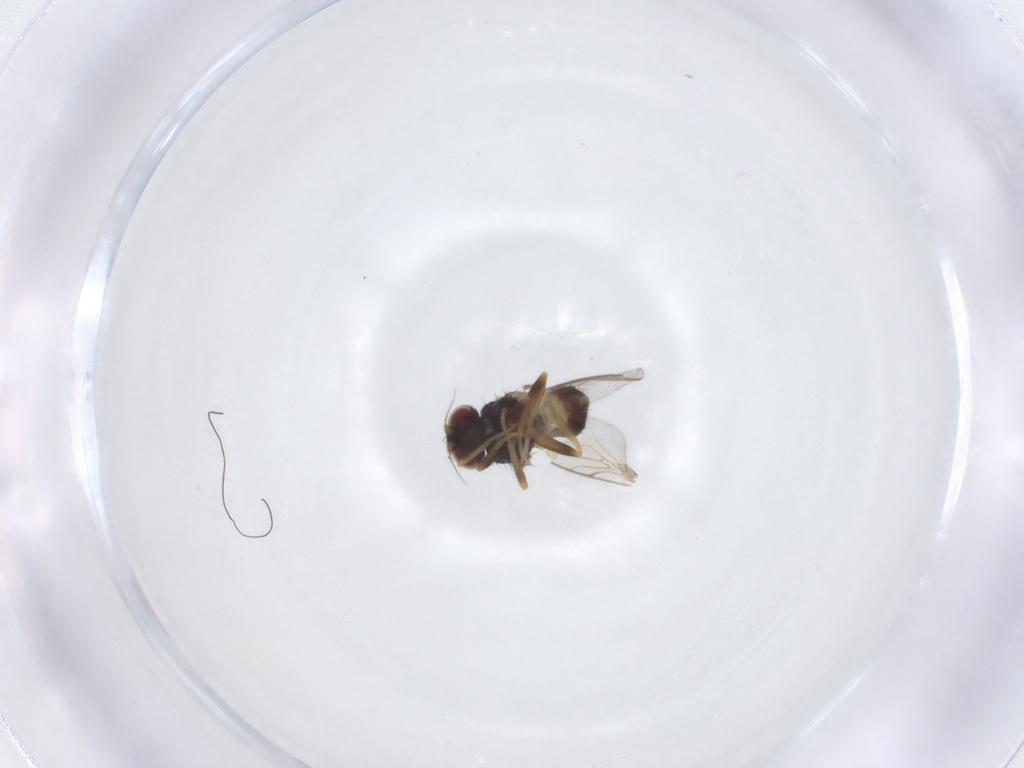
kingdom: Animalia
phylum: Arthropoda
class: Insecta
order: Diptera
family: Chloropidae
